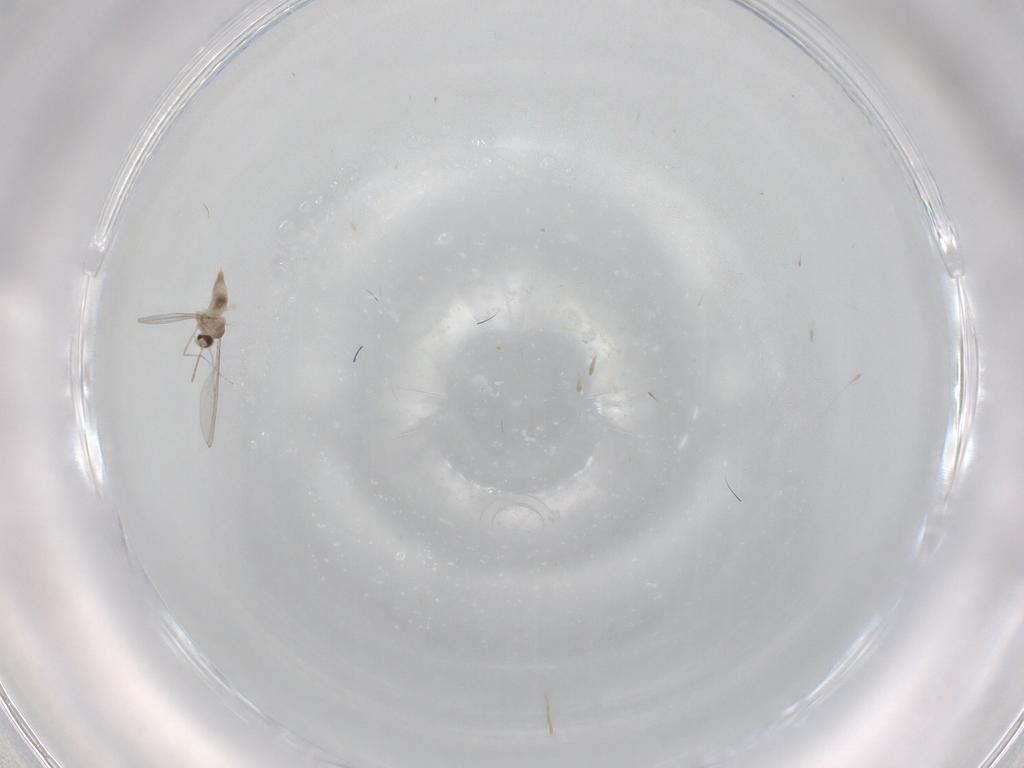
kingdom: Animalia
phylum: Arthropoda
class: Insecta
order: Diptera
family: Cecidomyiidae
